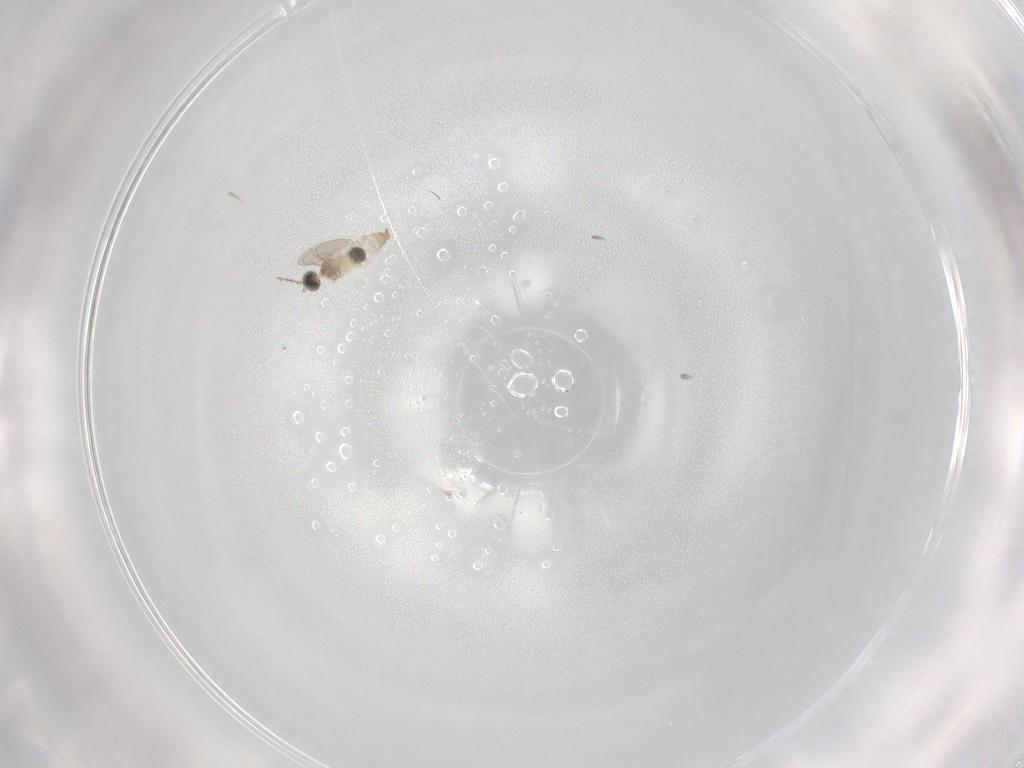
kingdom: Animalia
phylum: Arthropoda
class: Insecta
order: Diptera
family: Cecidomyiidae
